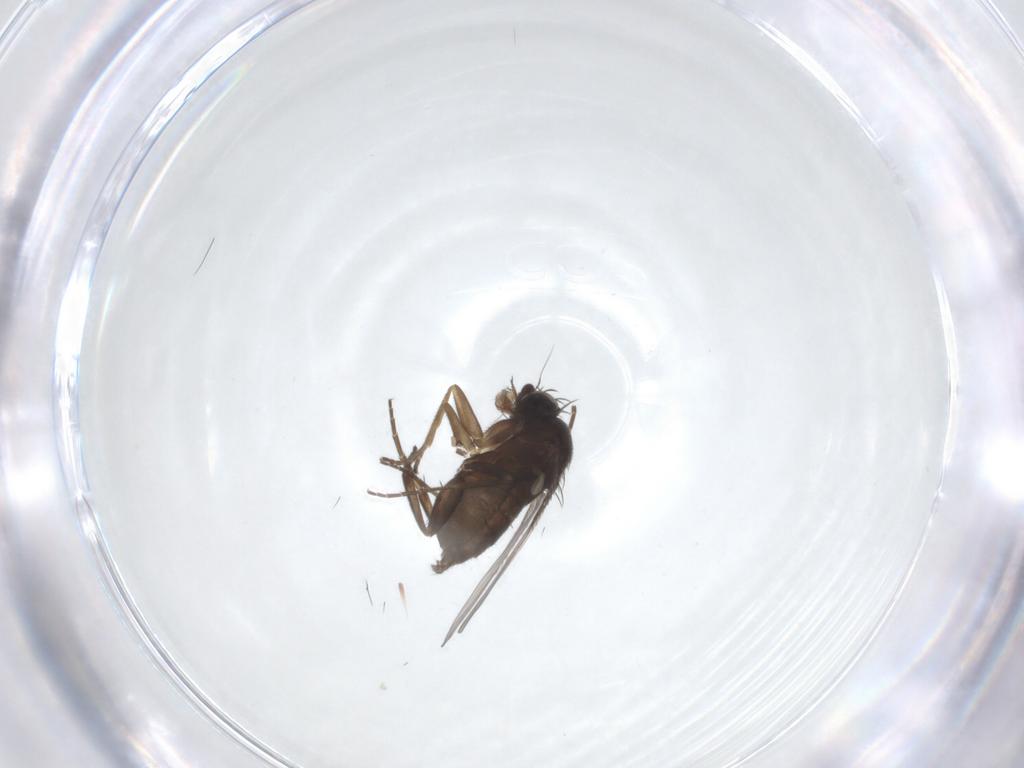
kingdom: Animalia
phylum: Arthropoda
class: Insecta
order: Diptera
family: Phoridae
